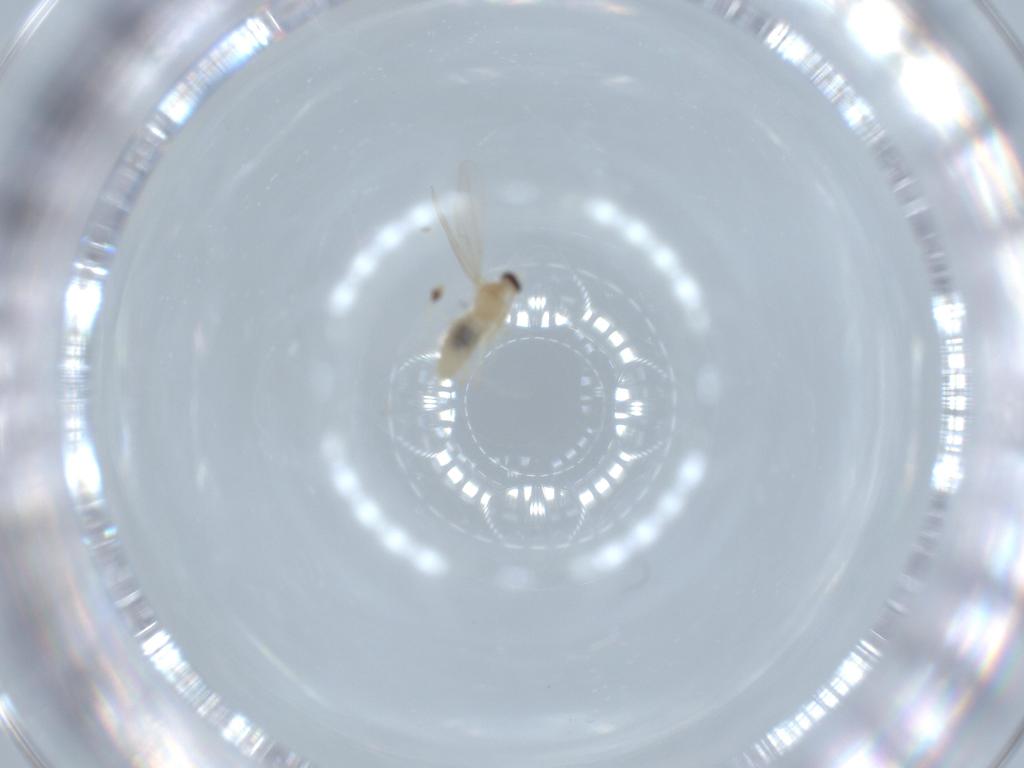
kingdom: Animalia
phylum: Arthropoda
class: Insecta
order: Diptera
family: Cecidomyiidae
